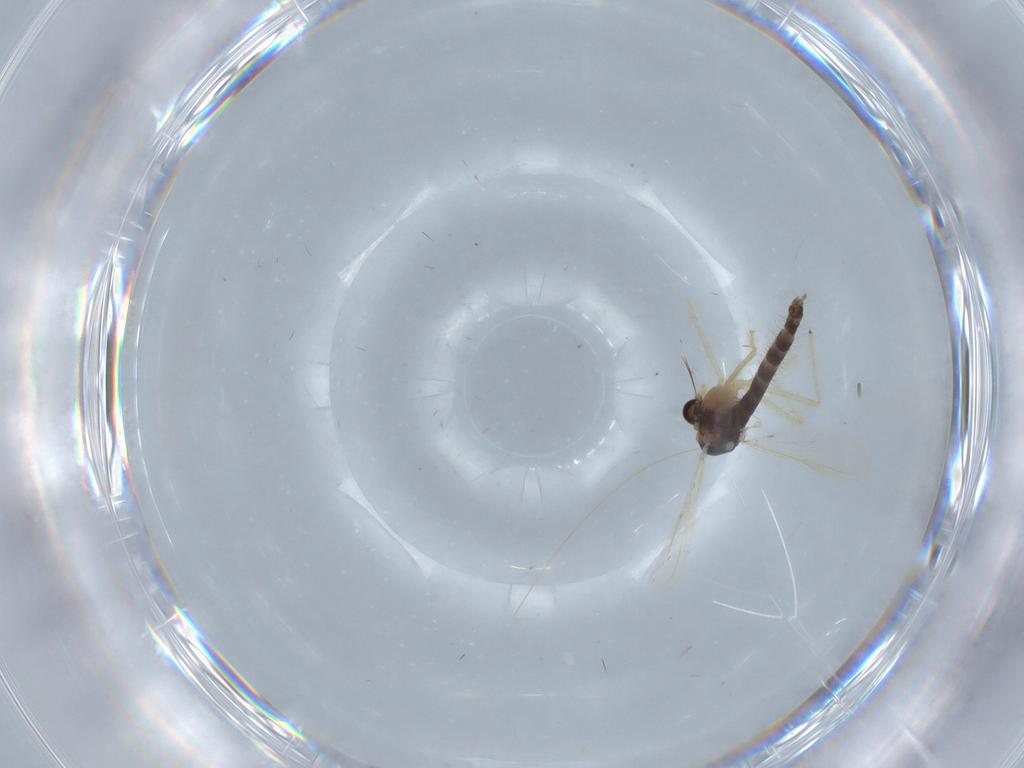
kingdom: Animalia
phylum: Arthropoda
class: Insecta
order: Diptera
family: Chironomidae
